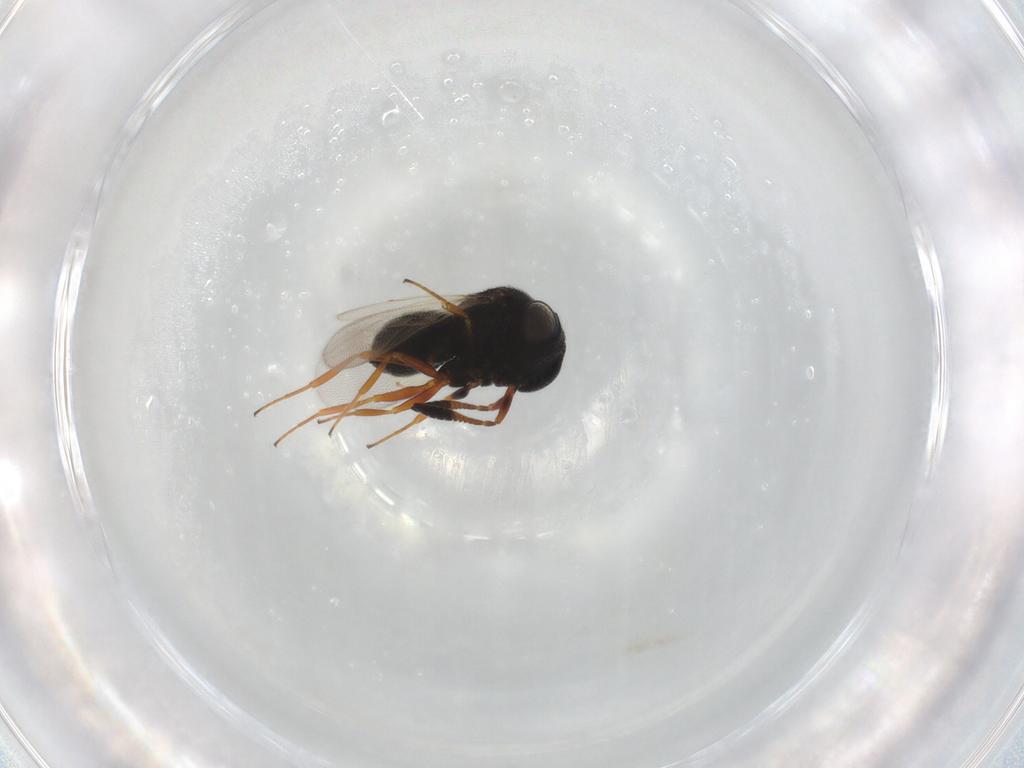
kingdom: Animalia
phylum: Arthropoda
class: Insecta
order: Hymenoptera
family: Scelionidae
